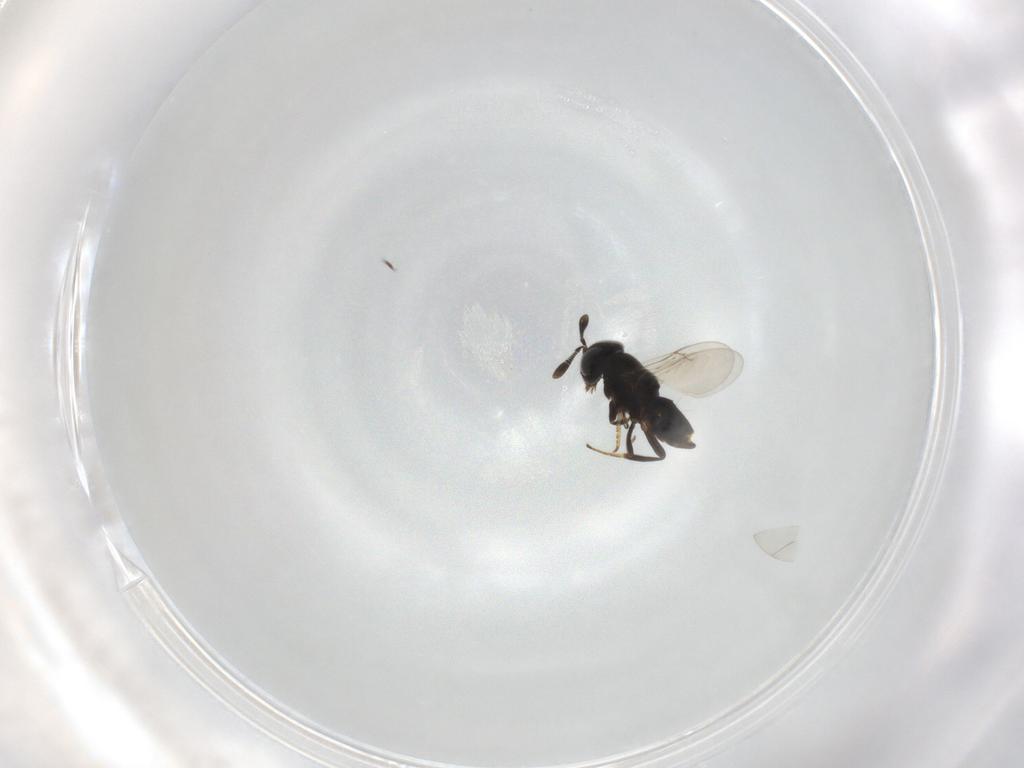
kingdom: Animalia
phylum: Arthropoda
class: Insecta
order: Hymenoptera
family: Encyrtidae
